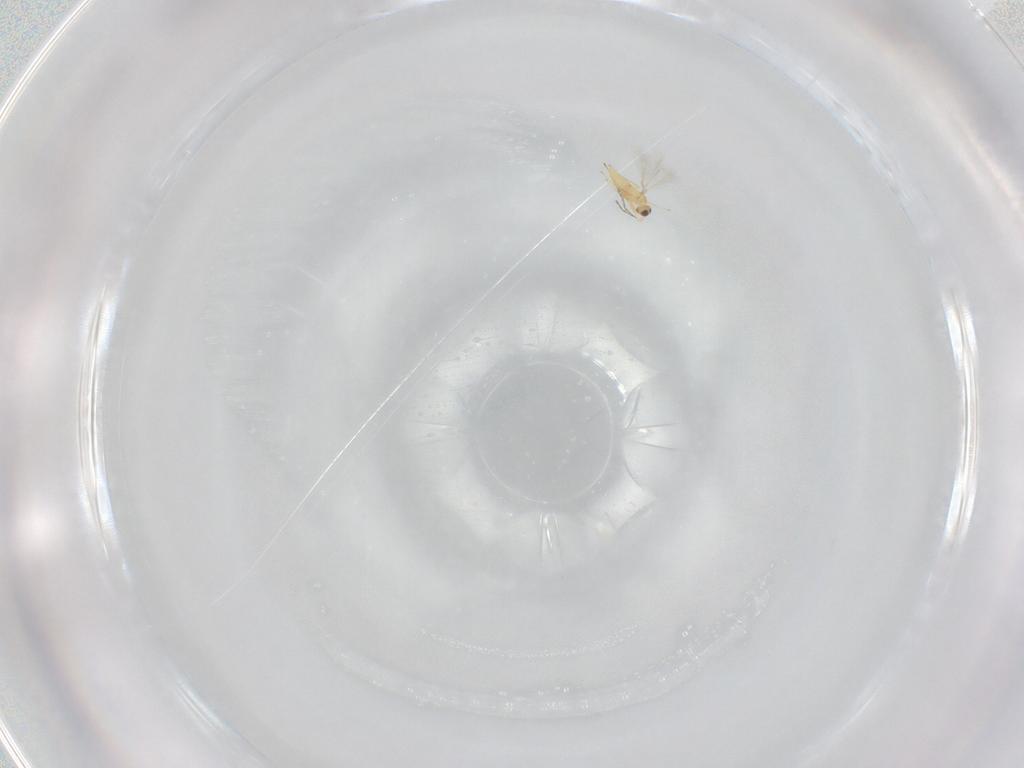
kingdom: Animalia
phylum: Arthropoda
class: Insecta
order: Hymenoptera
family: Mymaridae
